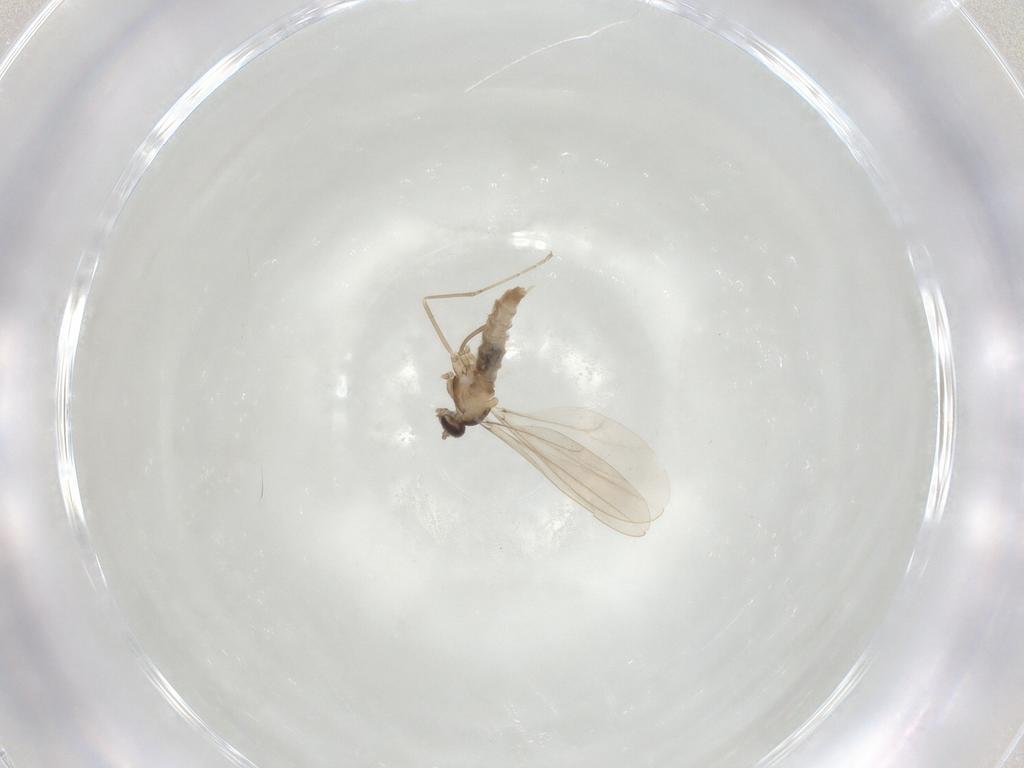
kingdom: Animalia
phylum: Arthropoda
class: Insecta
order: Diptera
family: Cecidomyiidae
